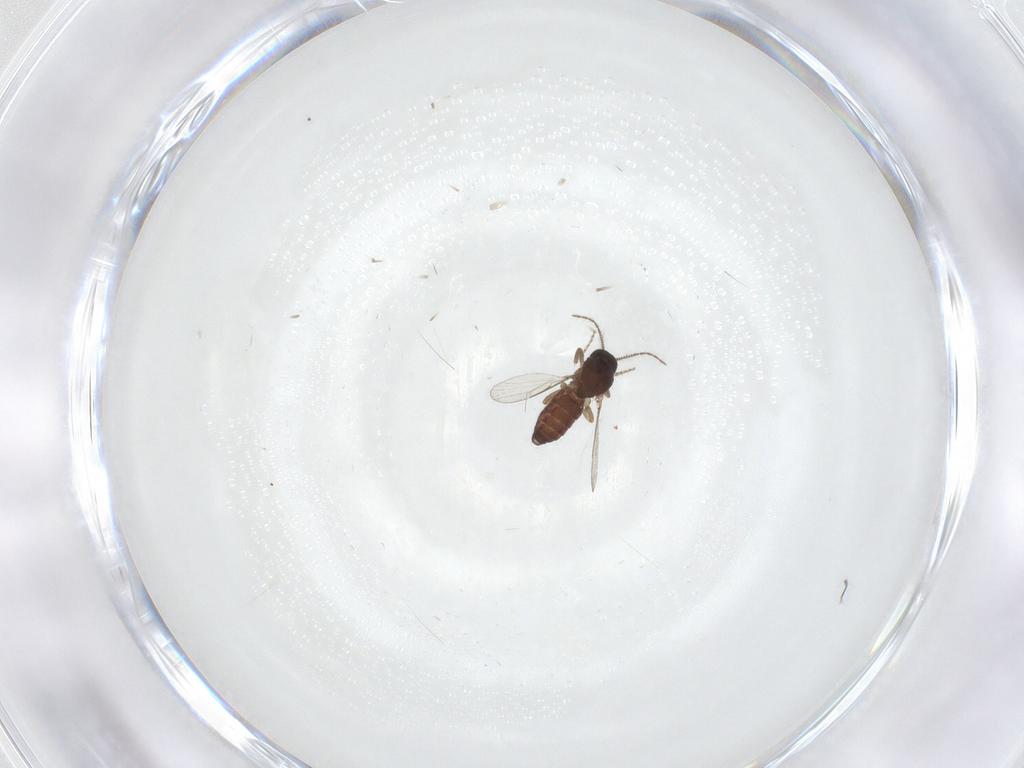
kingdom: Animalia
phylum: Arthropoda
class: Insecta
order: Diptera
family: Ceratopogonidae
